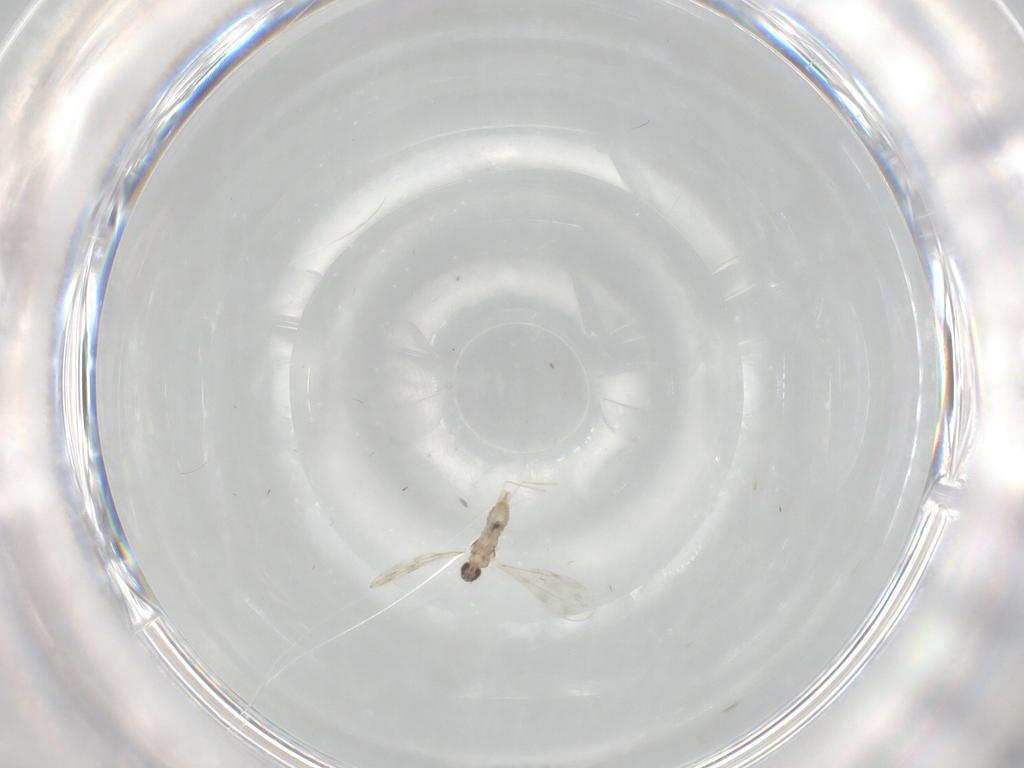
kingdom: Animalia
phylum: Arthropoda
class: Insecta
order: Diptera
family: Cecidomyiidae
